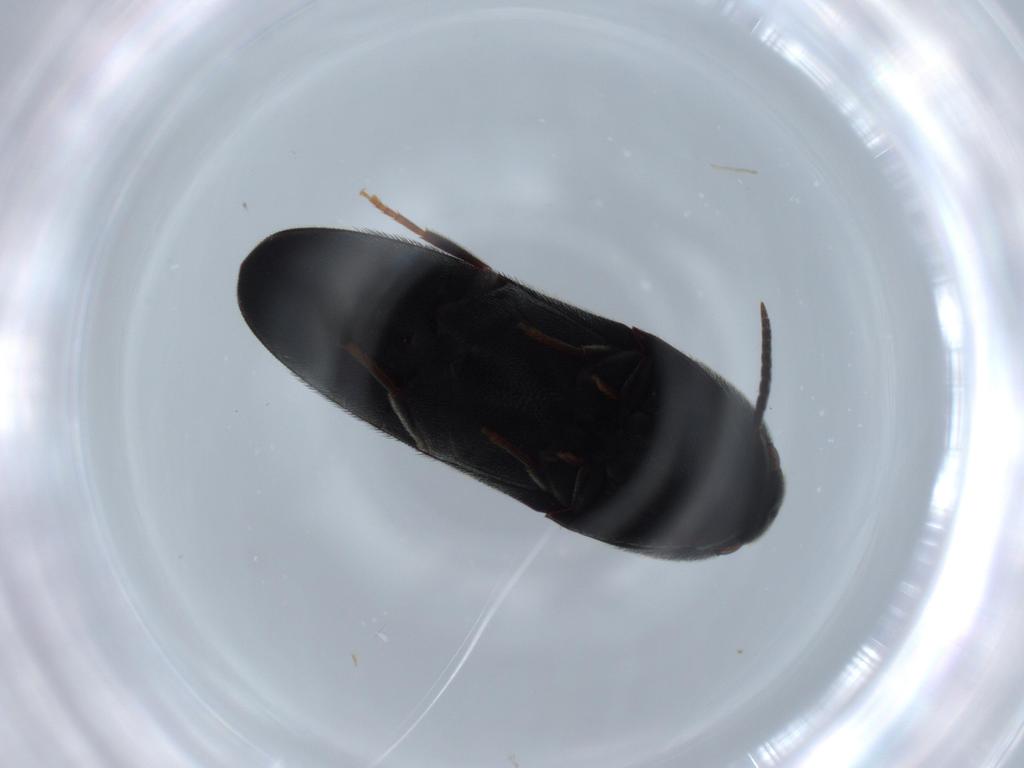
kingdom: Animalia
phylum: Arthropoda
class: Insecta
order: Coleoptera
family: Eucnemidae
